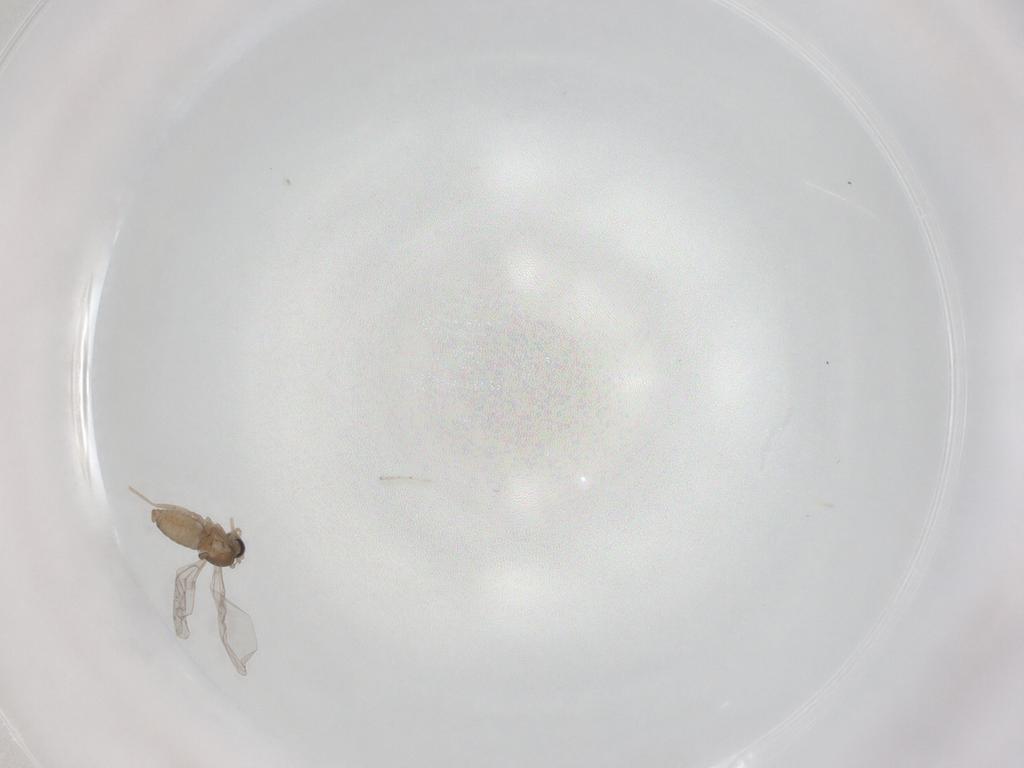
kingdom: Animalia
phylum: Arthropoda
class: Insecta
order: Diptera
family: Cecidomyiidae
